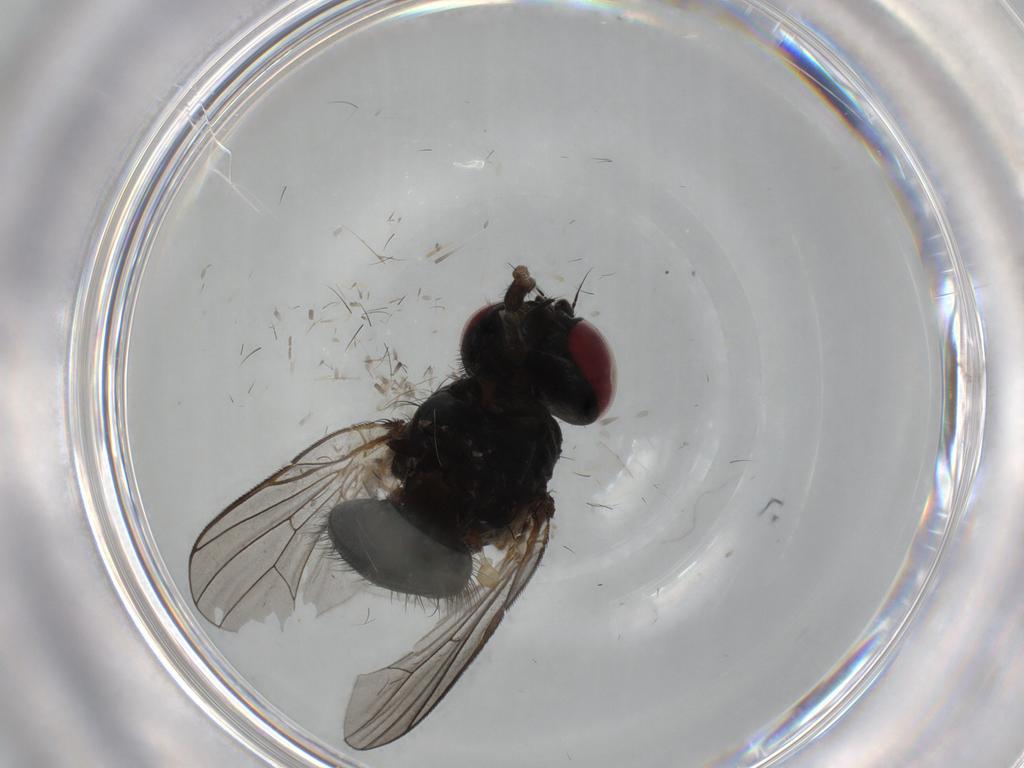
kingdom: Animalia
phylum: Arthropoda
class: Insecta
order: Diptera
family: Fannia
